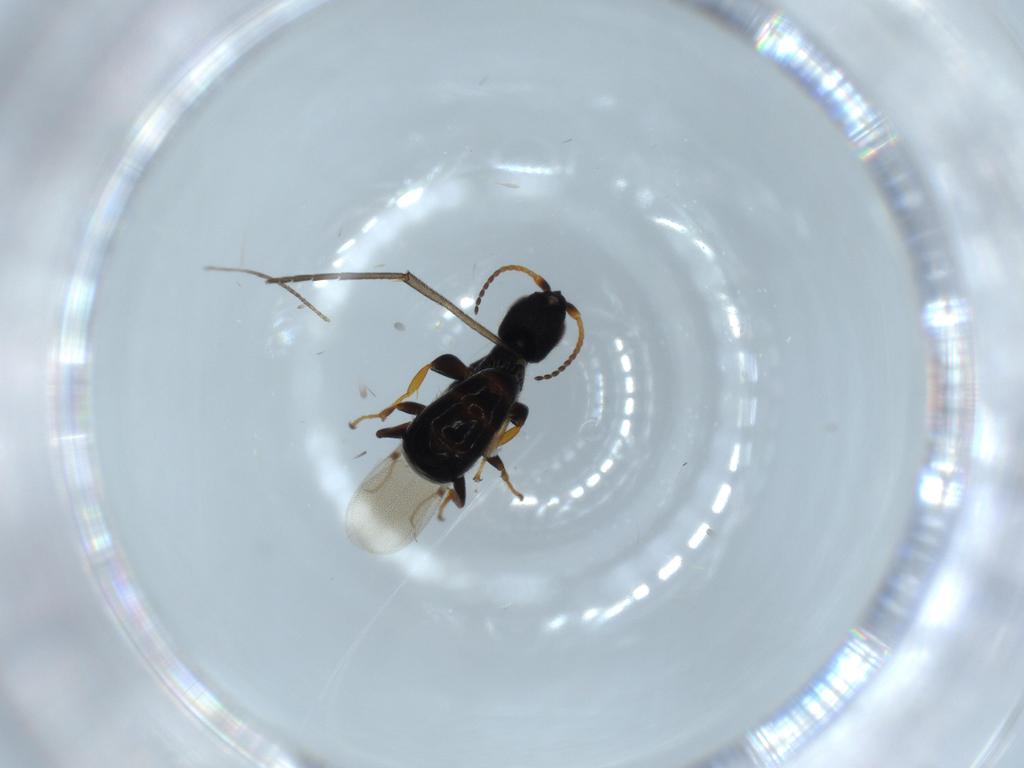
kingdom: Animalia
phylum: Arthropoda
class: Insecta
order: Hymenoptera
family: Bethylidae
